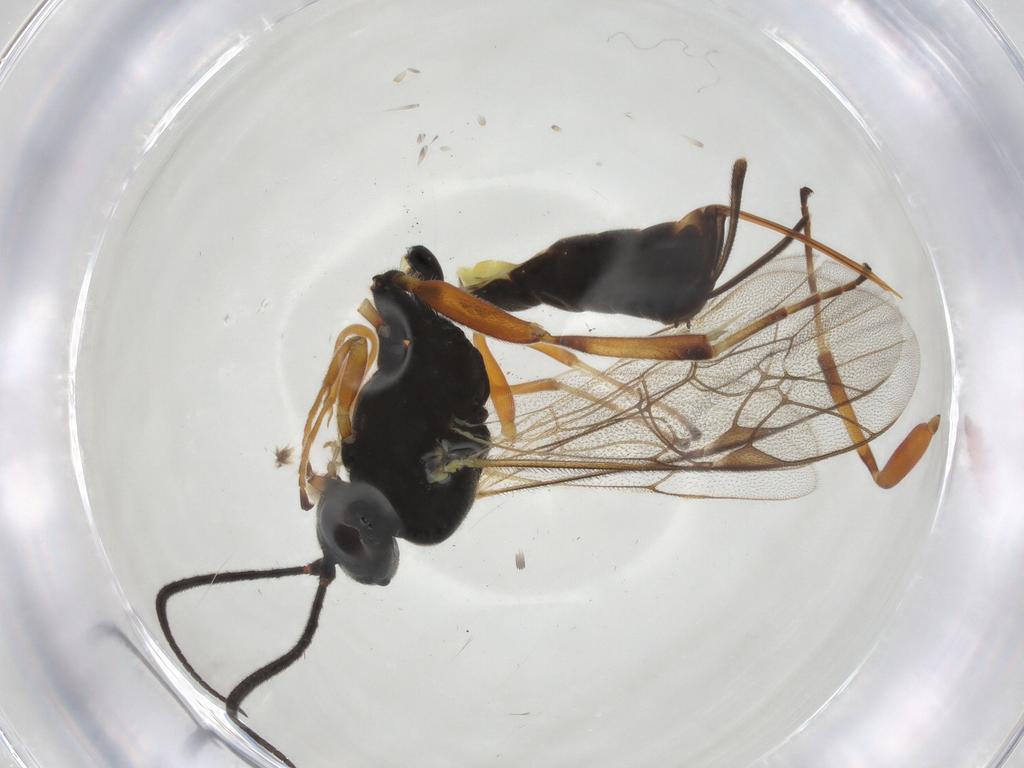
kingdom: Animalia
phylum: Arthropoda
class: Insecta
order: Hymenoptera
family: Ichneumonidae
